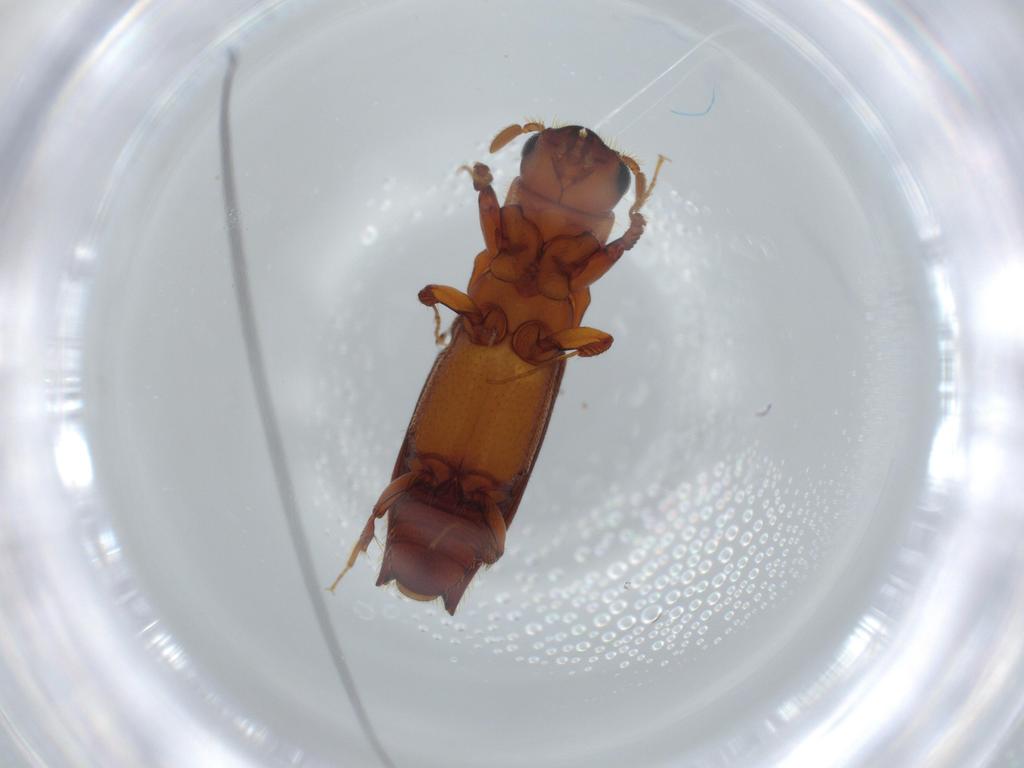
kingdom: Animalia
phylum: Arthropoda
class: Insecta
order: Coleoptera
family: Curculionidae
